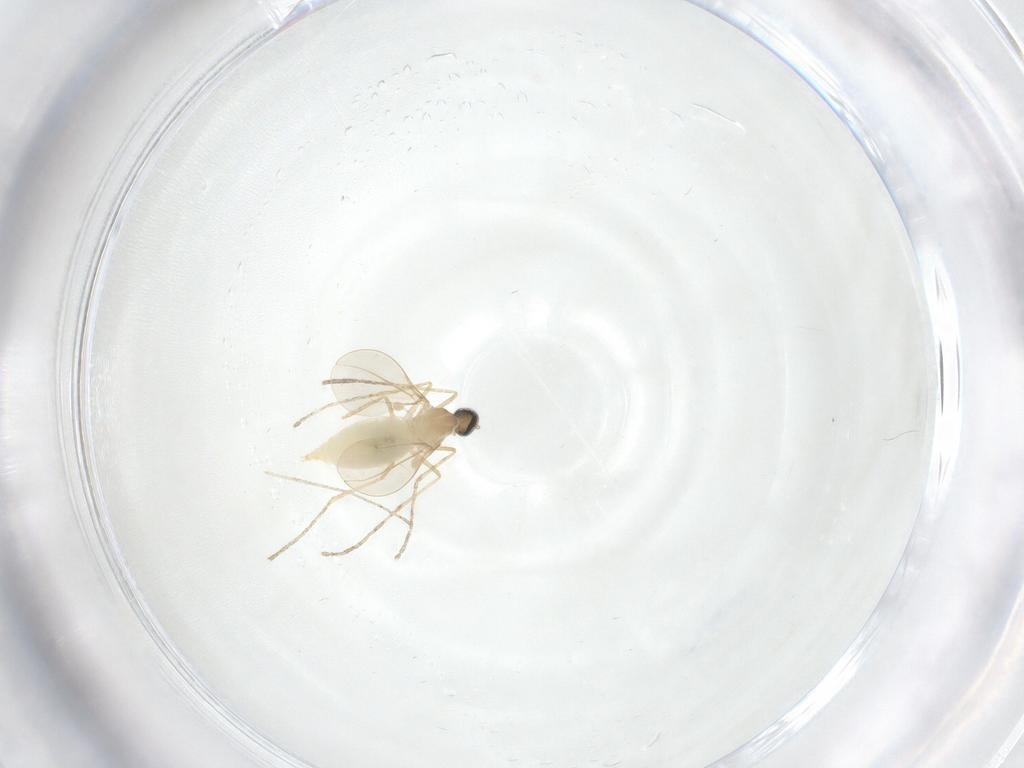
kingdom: Animalia
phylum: Arthropoda
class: Insecta
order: Diptera
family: Cecidomyiidae
